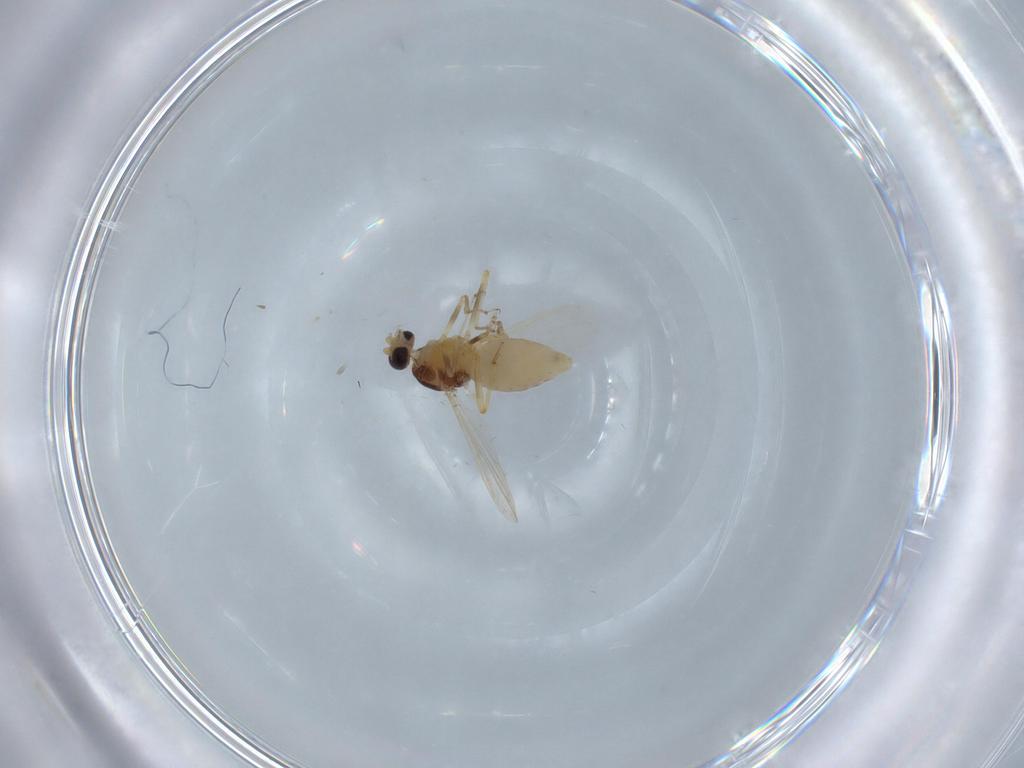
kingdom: Animalia
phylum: Arthropoda
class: Insecta
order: Diptera
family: Ceratopogonidae
